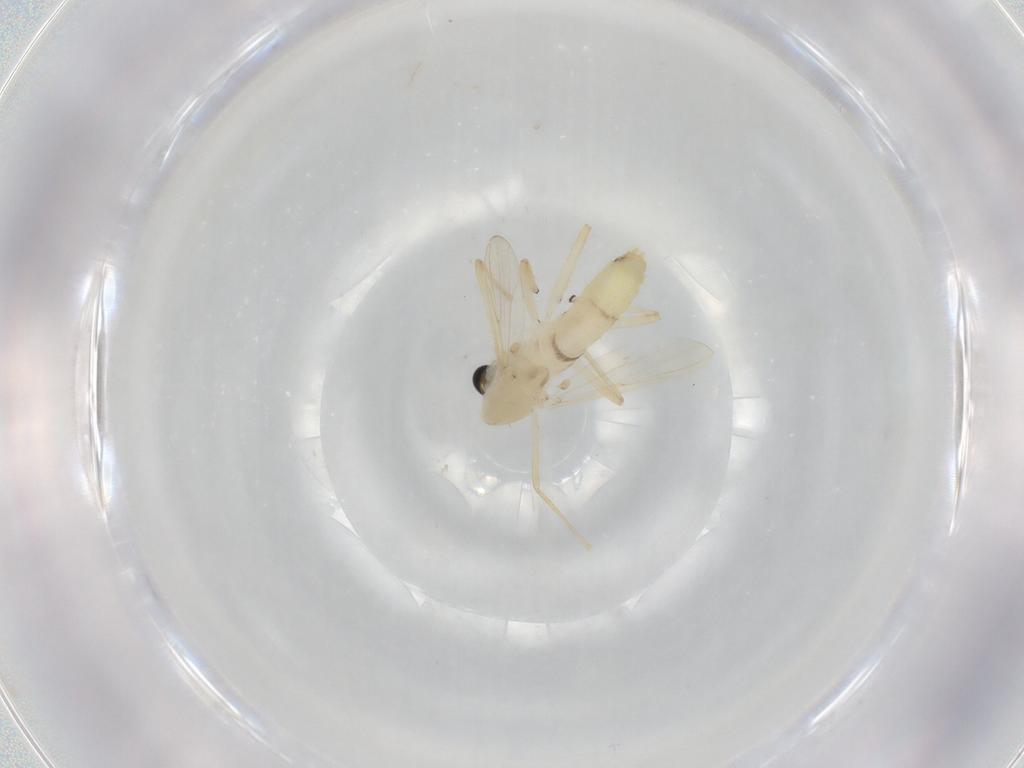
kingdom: Animalia
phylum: Arthropoda
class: Insecta
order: Diptera
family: Chironomidae
